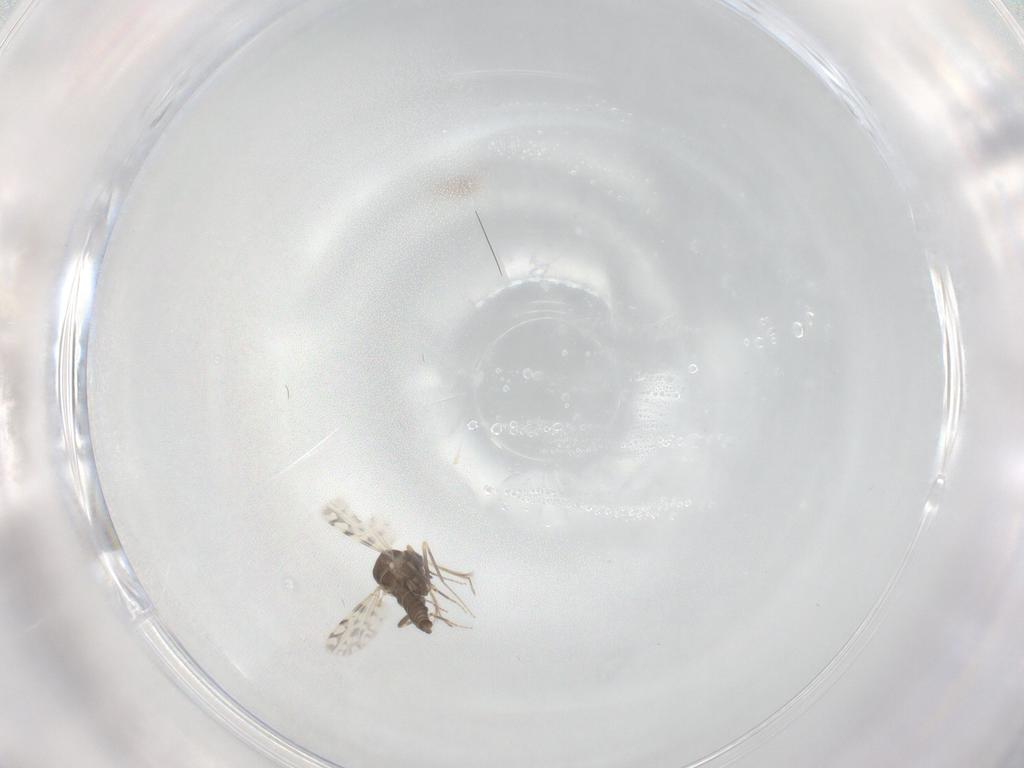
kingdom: Animalia
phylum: Arthropoda
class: Insecta
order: Diptera
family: Ceratopogonidae
